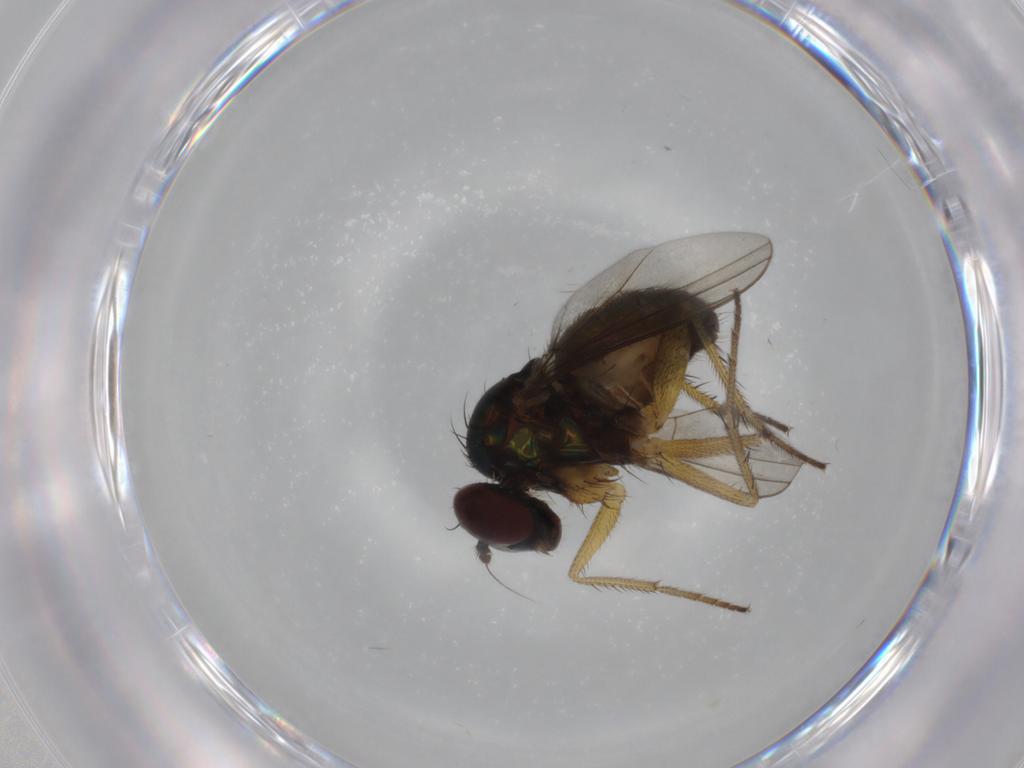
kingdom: Animalia
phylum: Arthropoda
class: Insecta
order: Diptera
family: Dolichopodidae
